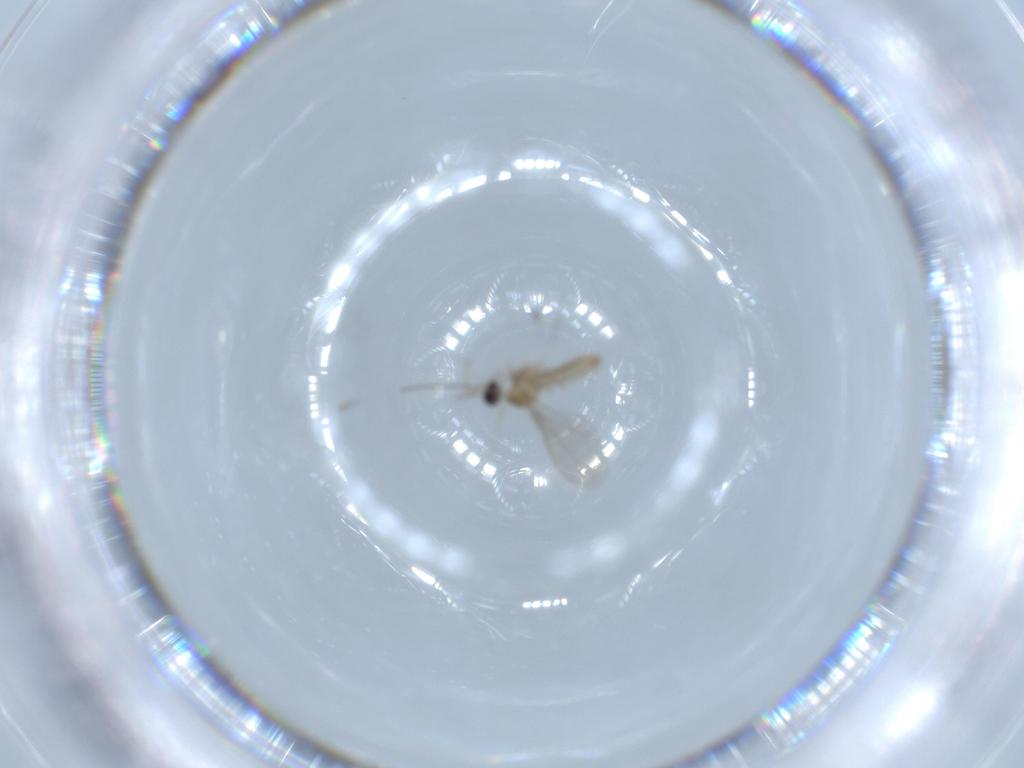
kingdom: Animalia
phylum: Arthropoda
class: Insecta
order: Diptera
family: Cecidomyiidae
